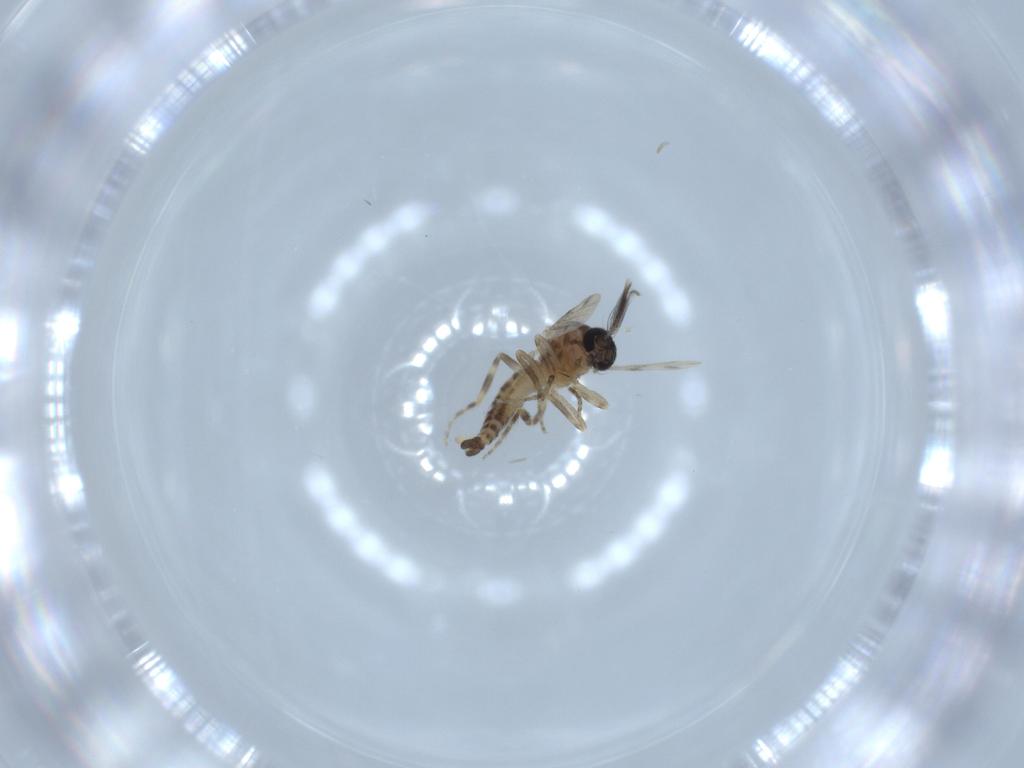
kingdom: Animalia
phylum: Arthropoda
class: Insecta
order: Diptera
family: Ceratopogonidae
